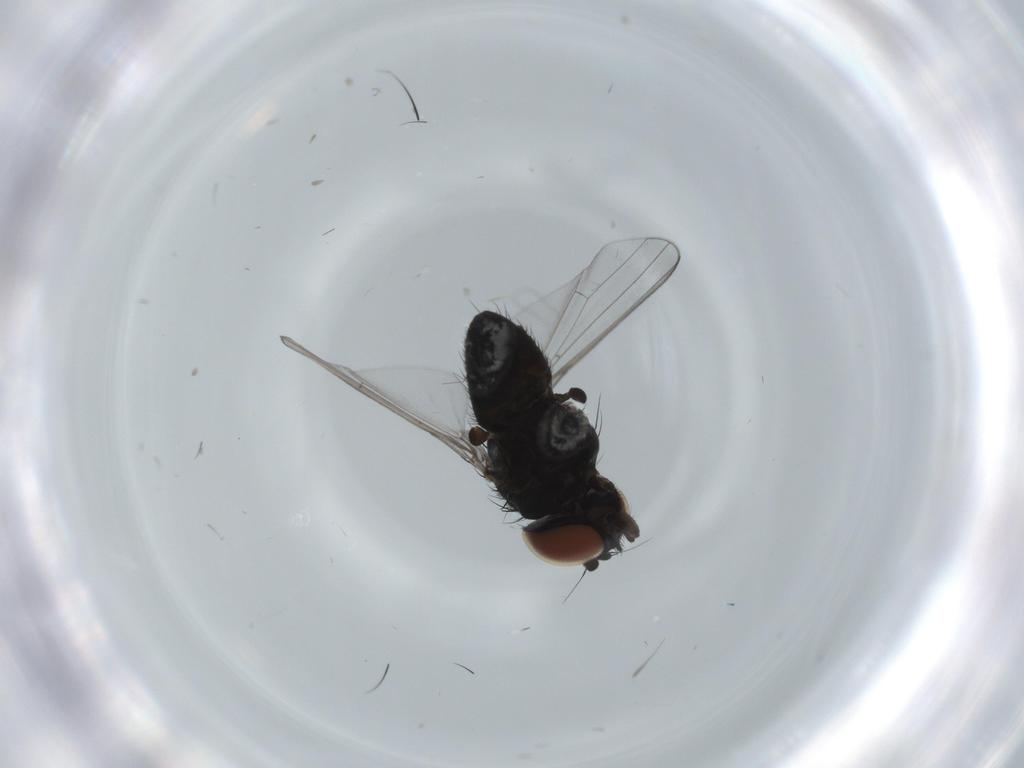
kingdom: Animalia
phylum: Arthropoda
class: Insecta
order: Diptera
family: Milichiidae
